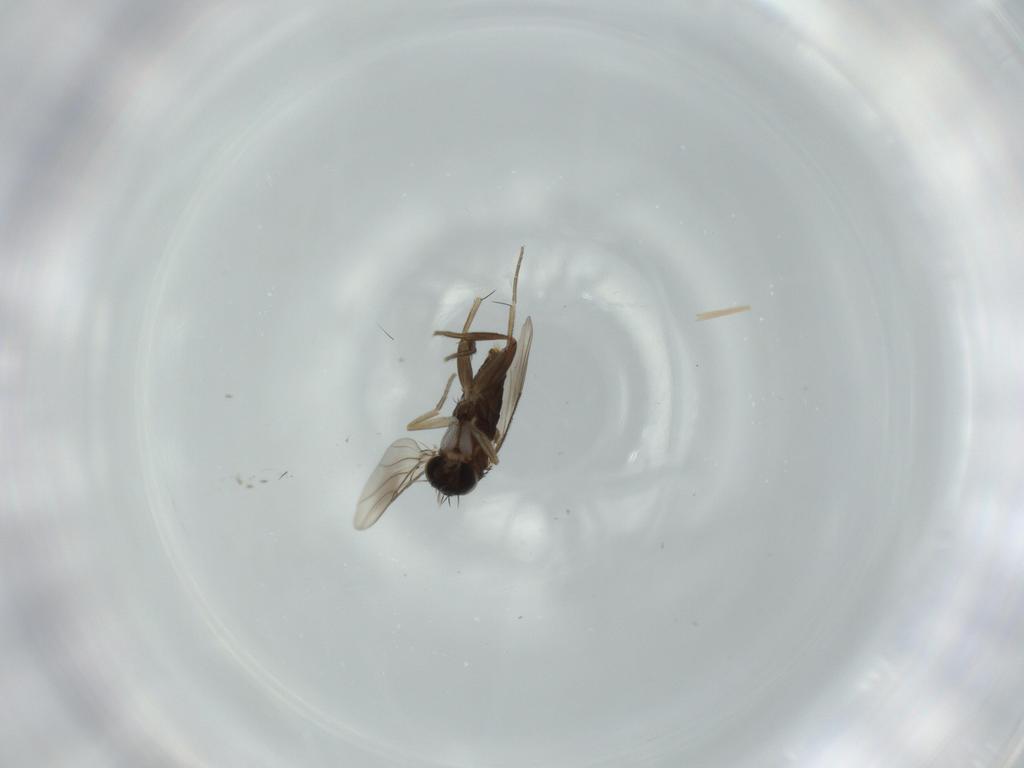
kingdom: Animalia
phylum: Arthropoda
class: Insecta
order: Diptera
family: Phoridae
